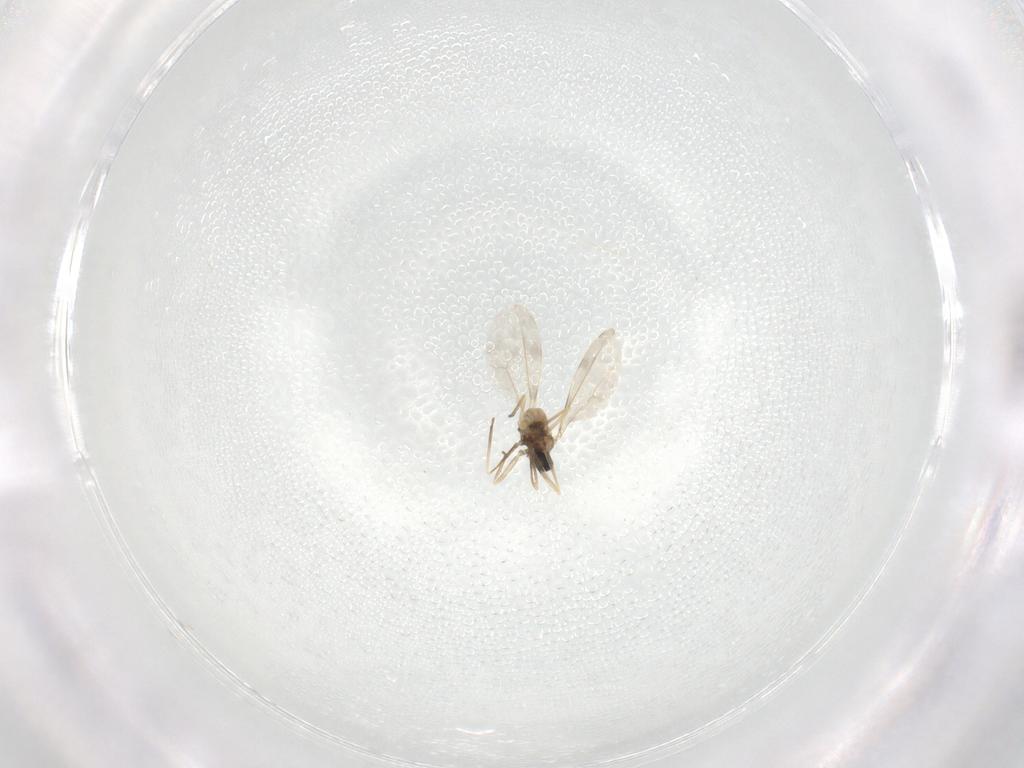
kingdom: Animalia
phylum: Arthropoda
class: Insecta
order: Diptera
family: Cecidomyiidae
